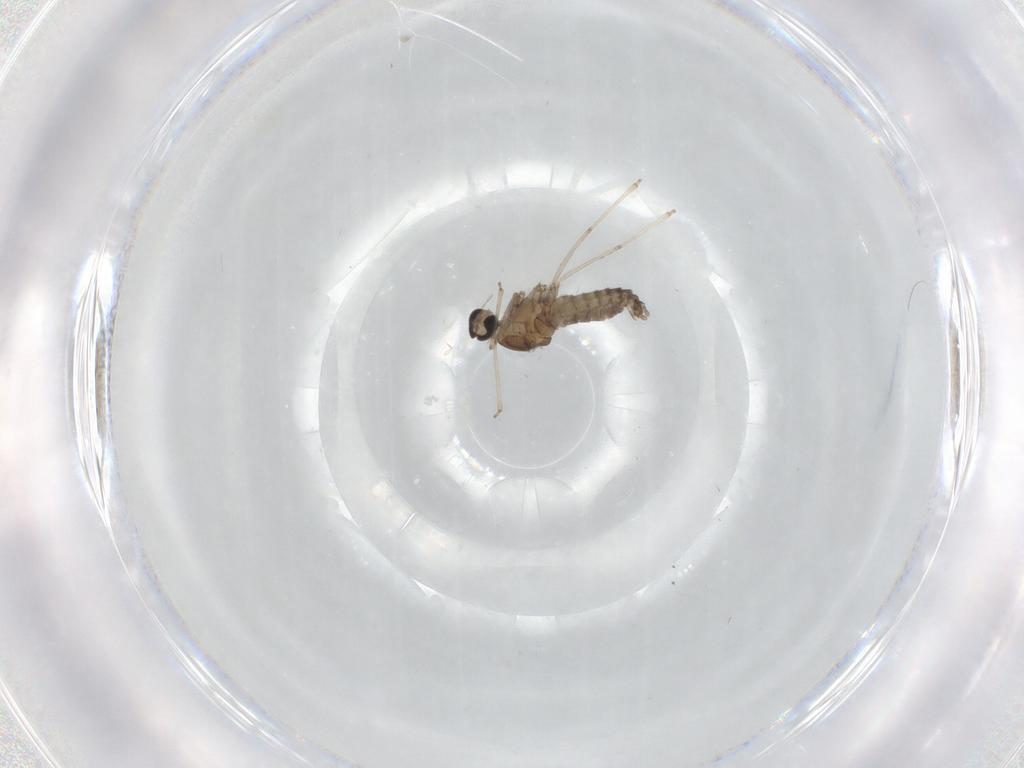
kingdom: Animalia
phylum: Arthropoda
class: Insecta
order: Diptera
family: Cecidomyiidae
